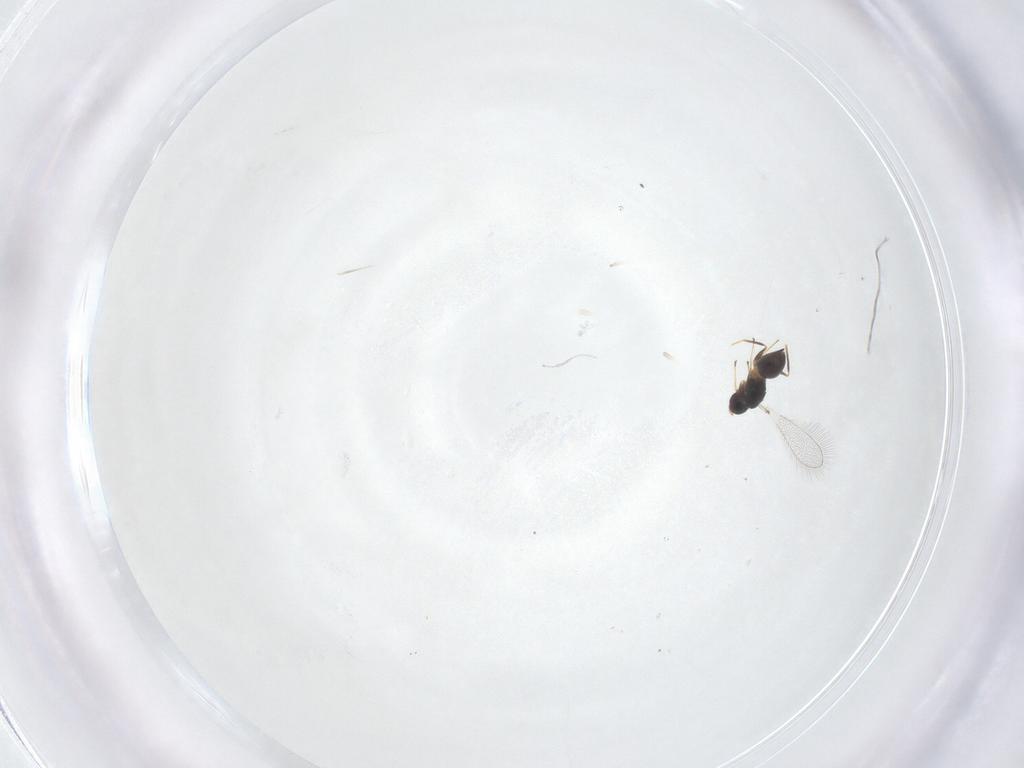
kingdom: Animalia
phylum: Arthropoda
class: Insecta
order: Hymenoptera
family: Mymaridae
